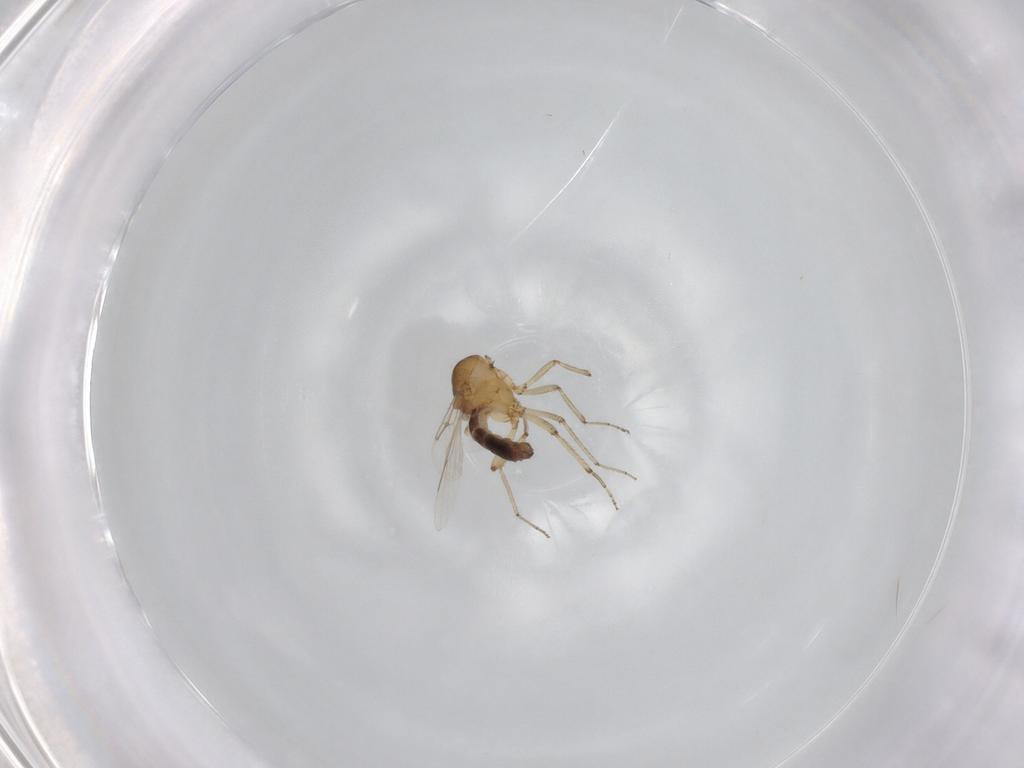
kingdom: Animalia
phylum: Arthropoda
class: Insecta
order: Diptera
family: Ceratopogonidae
